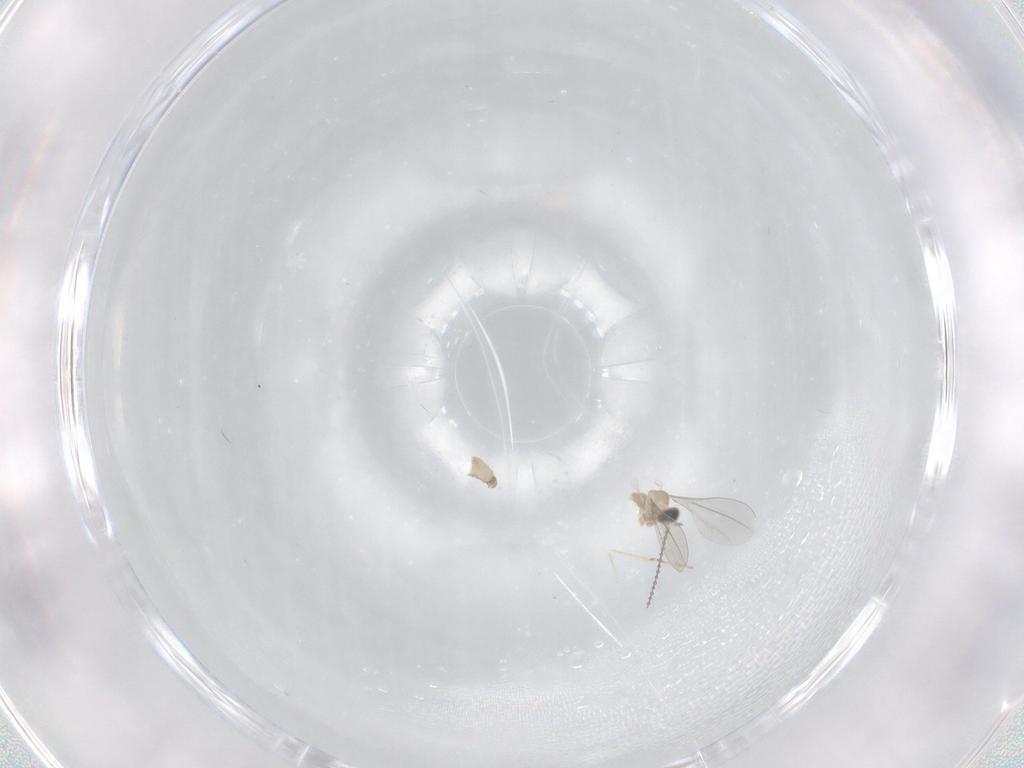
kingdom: Animalia
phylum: Arthropoda
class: Insecta
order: Diptera
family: Cecidomyiidae
